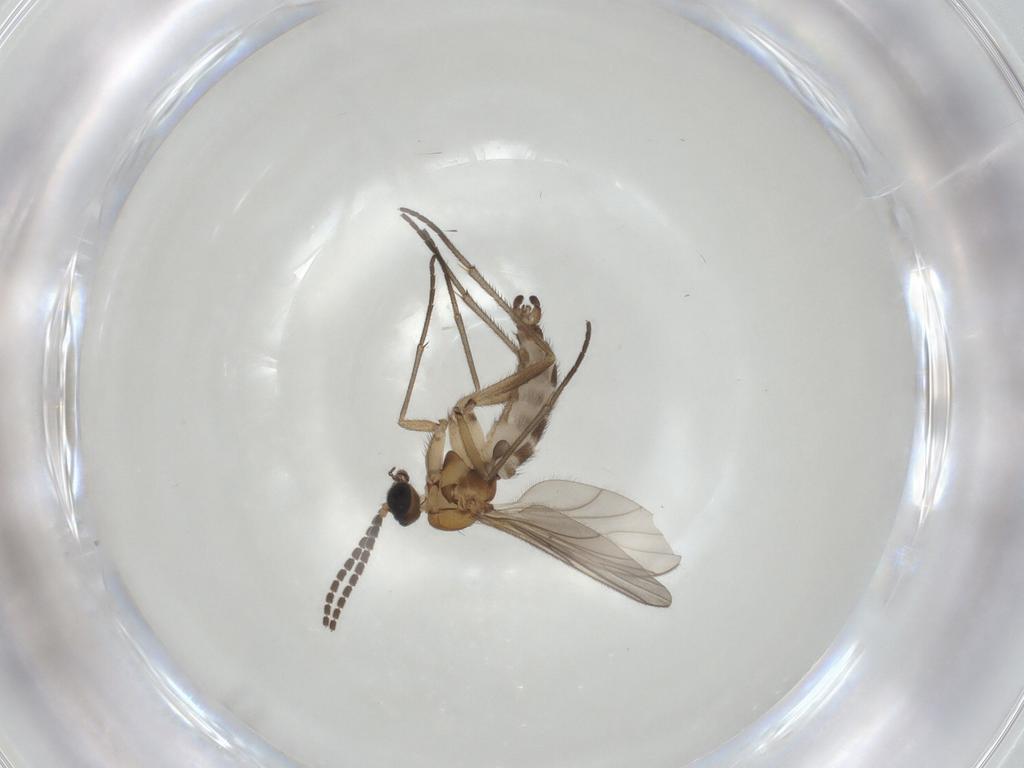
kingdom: Animalia
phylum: Arthropoda
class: Insecta
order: Diptera
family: Sciaridae
